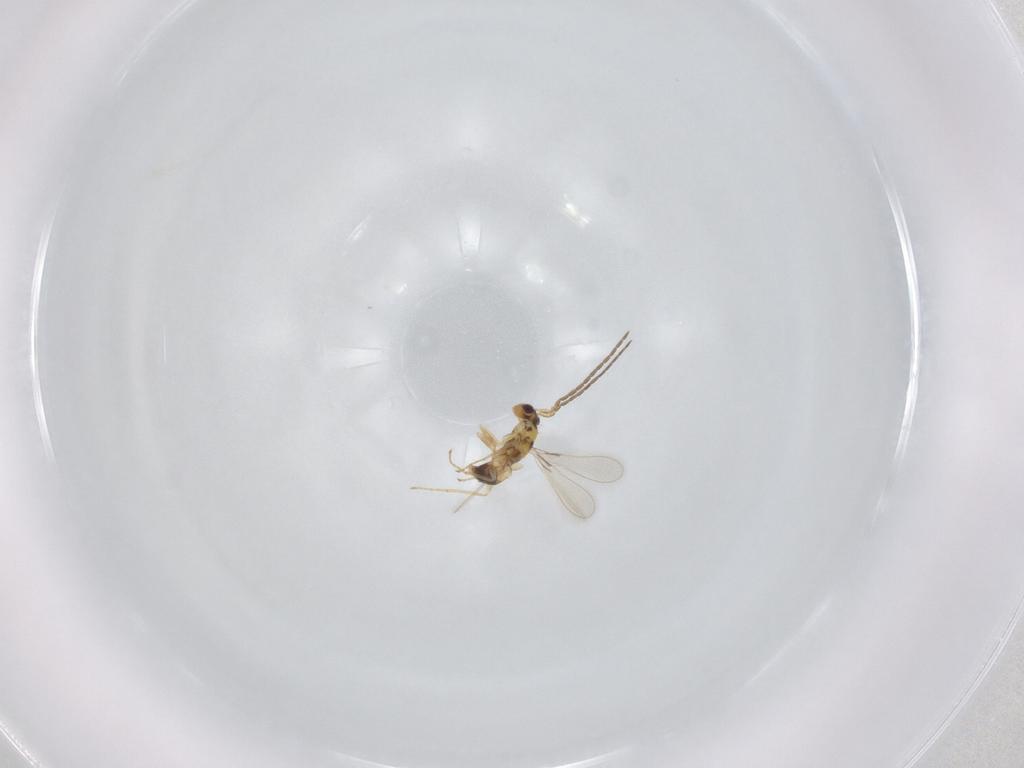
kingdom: Animalia
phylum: Arthropoda
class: Insecta
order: Hymenoptera
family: Mymaridae
